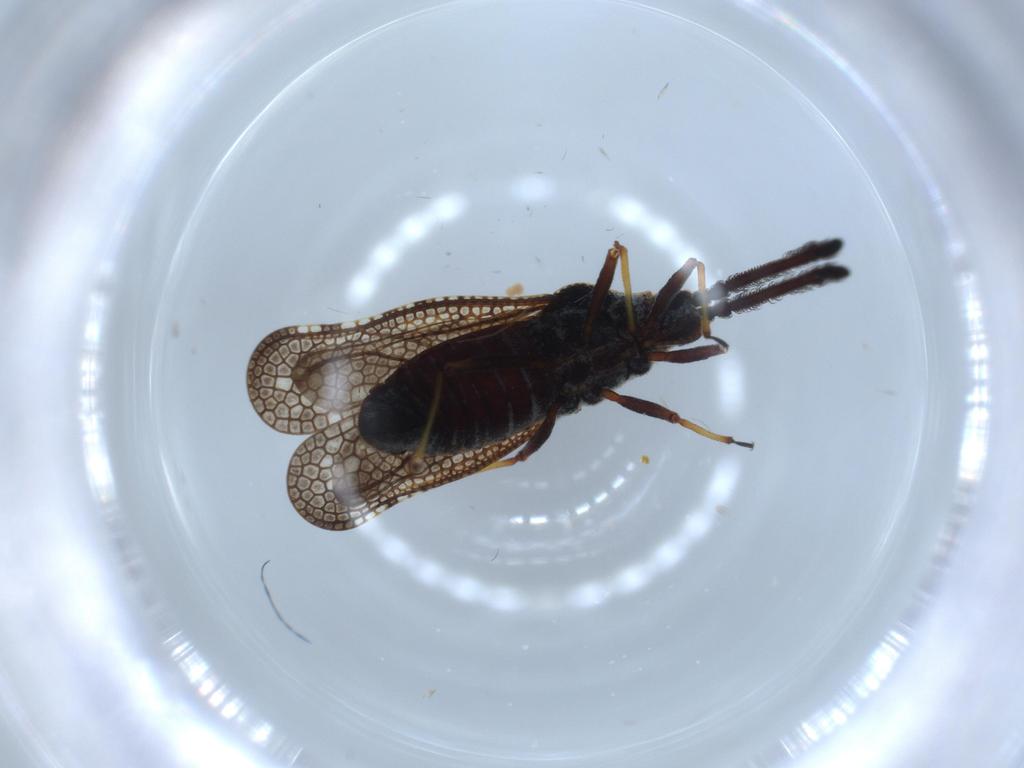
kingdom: Animalia
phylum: Arthropoda
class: Insecta
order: Hemiptera
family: Tingidae
